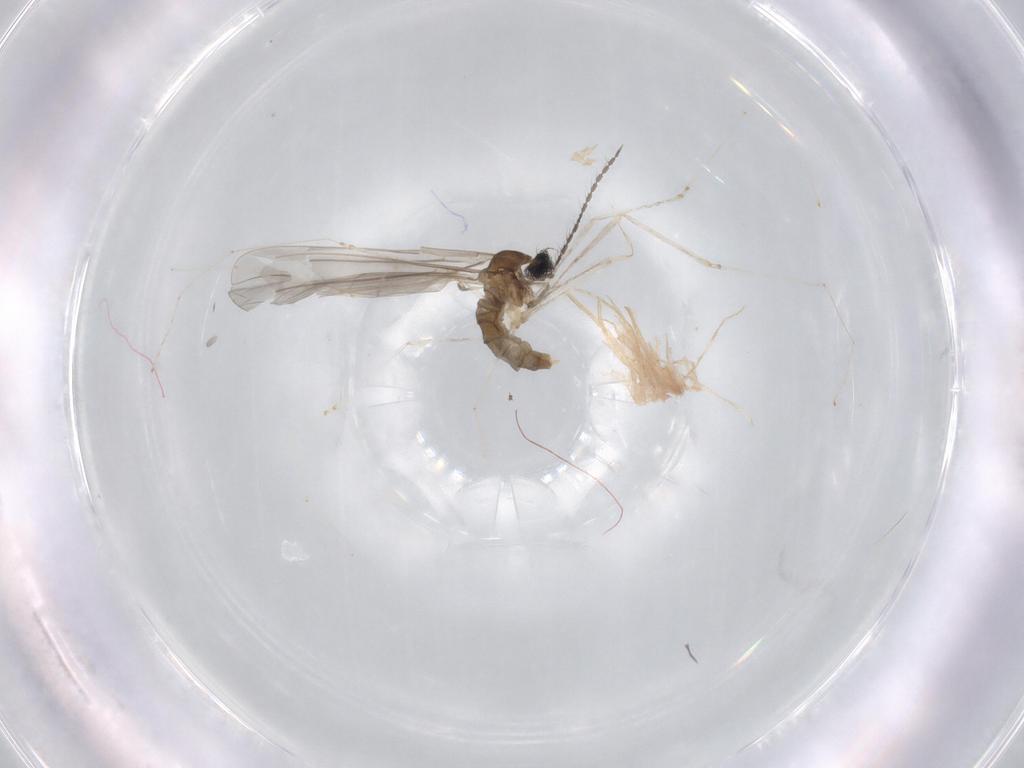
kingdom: Animalia
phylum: Arthropoda
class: Insecta
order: Diptera
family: Cecidomyiidae
